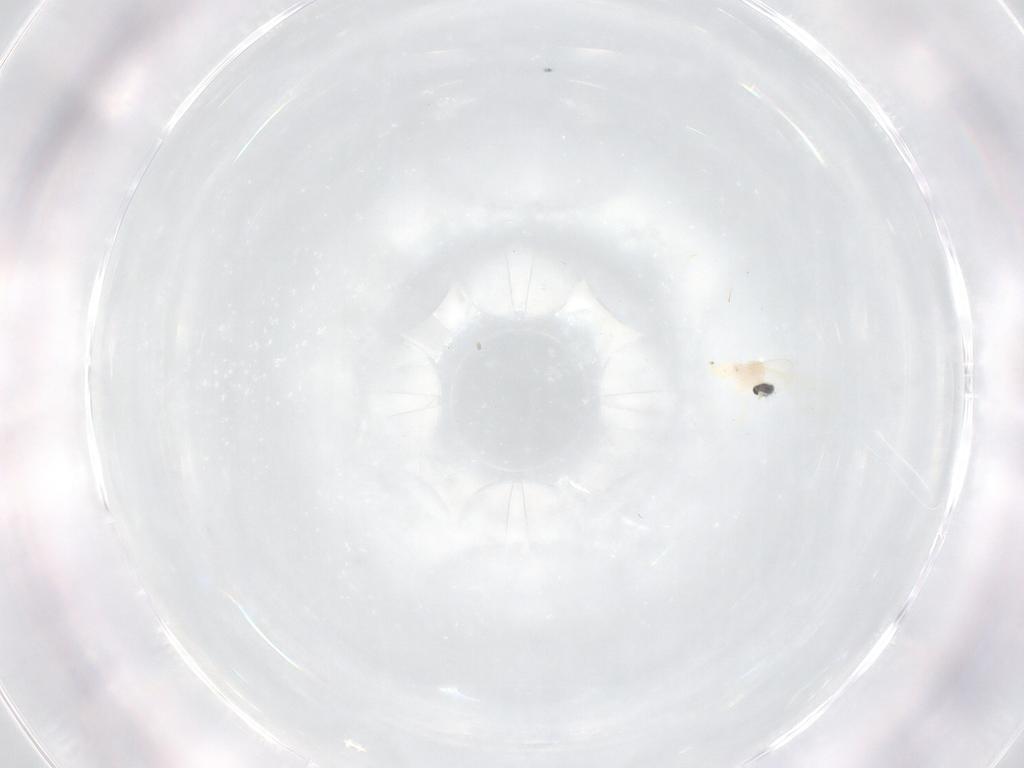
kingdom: Animalia
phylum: Arthropoda
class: Insecta
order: Diptera
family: Cecidomyiidae
